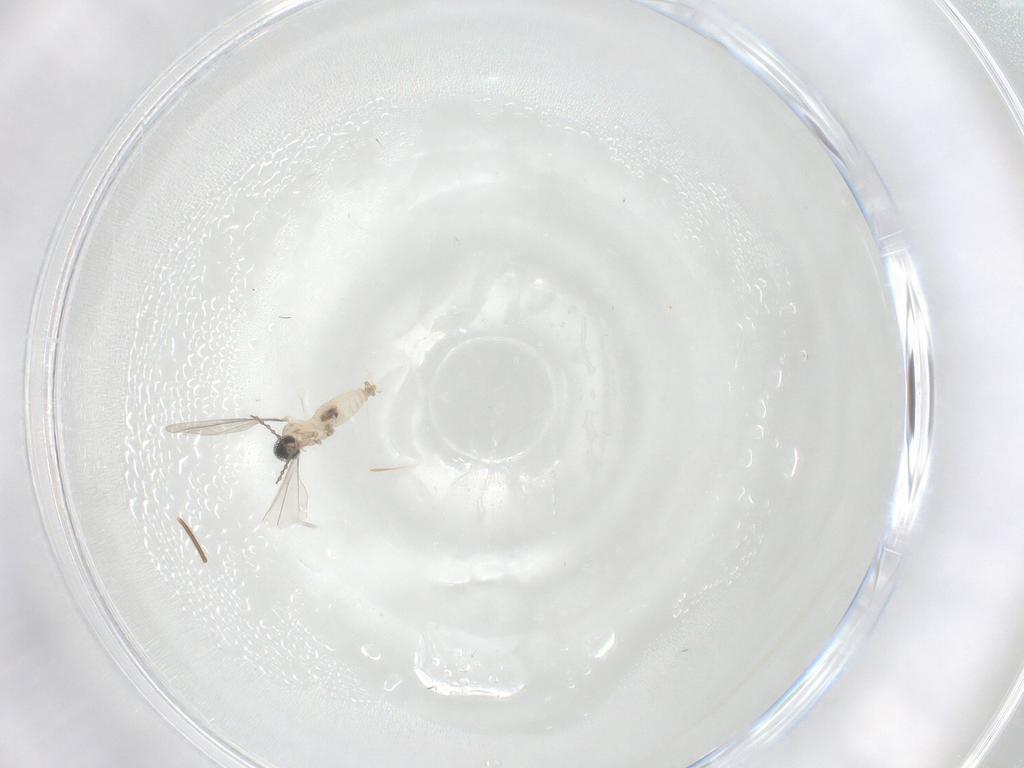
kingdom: Animalia
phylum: Arthropoda
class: Insecta
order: Diptera
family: Cecidomyiidae
